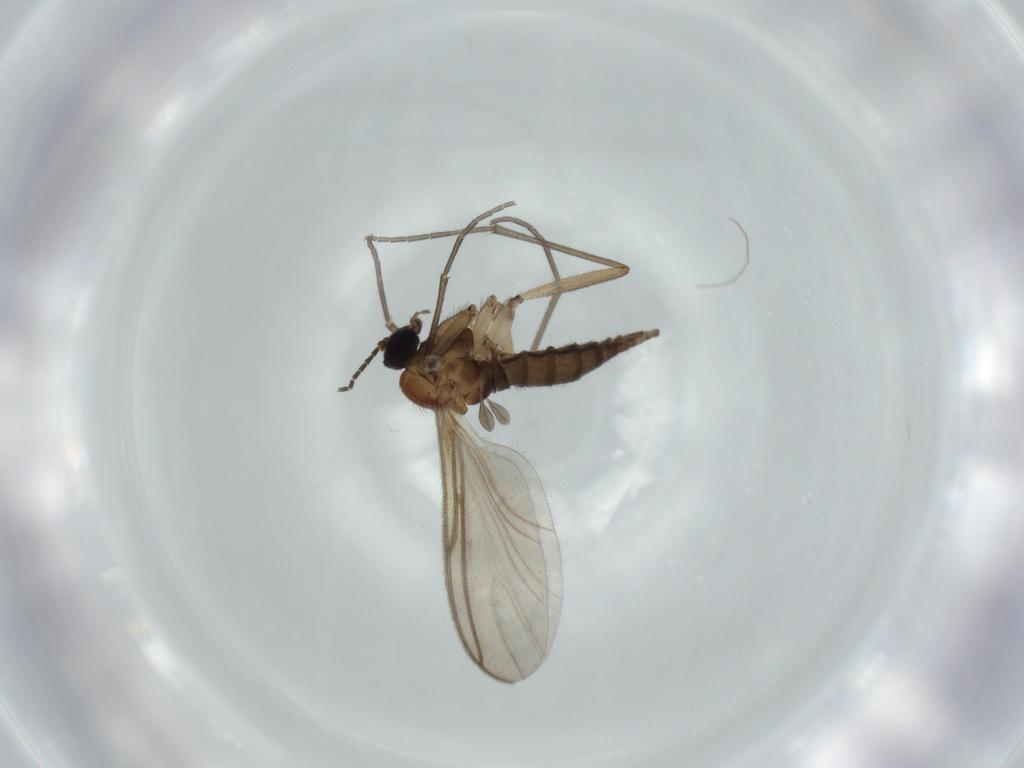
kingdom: Animalia
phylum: Arthropoda
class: Insecta
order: Diptera
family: Sciaridae
